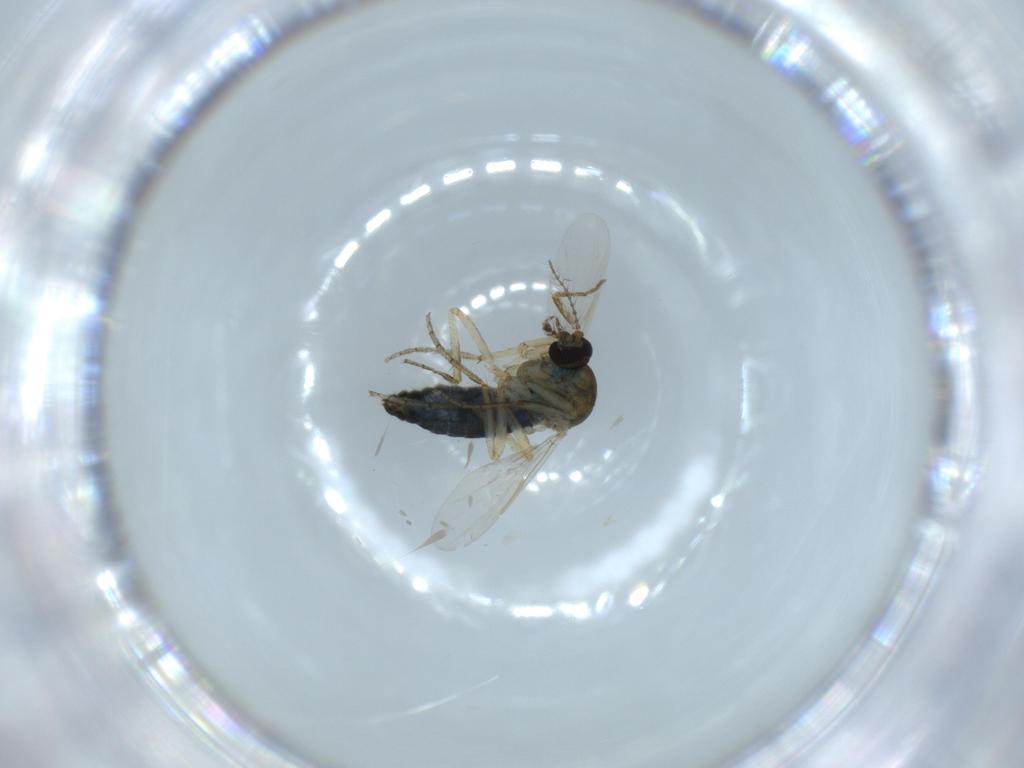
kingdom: Animalia
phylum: Arthropoda
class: Insecta
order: Diptera
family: Ceratopogonidae
